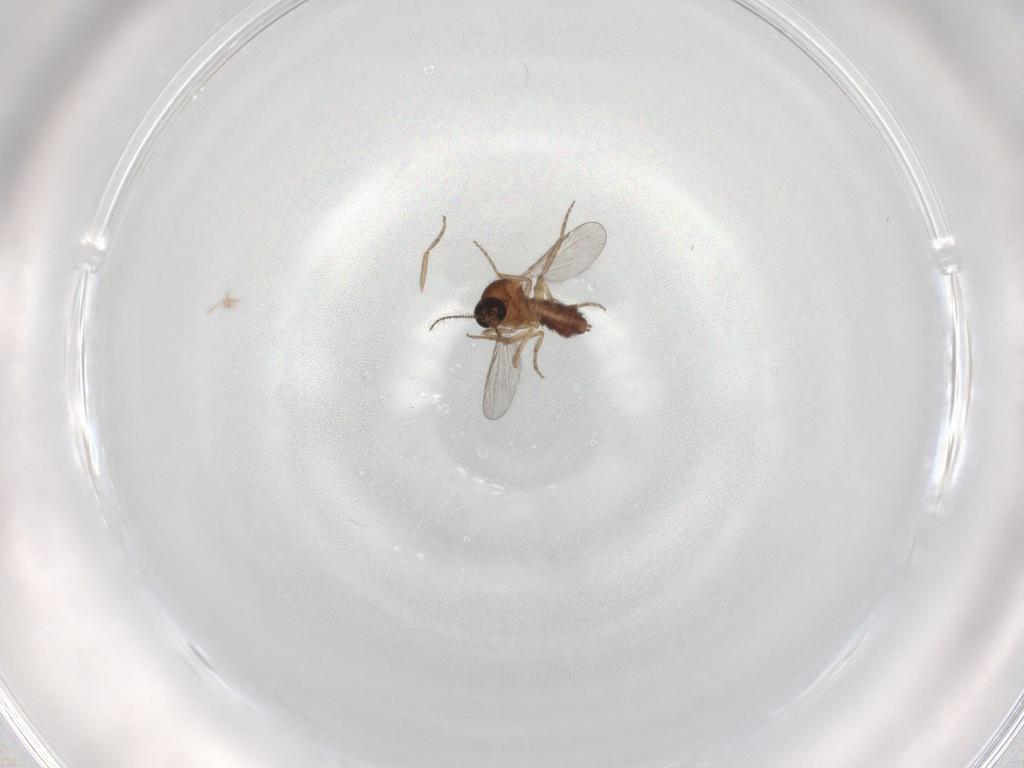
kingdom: Animalia
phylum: Arthropoda
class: Insecta
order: Diptera
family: Ceratopogonidae
